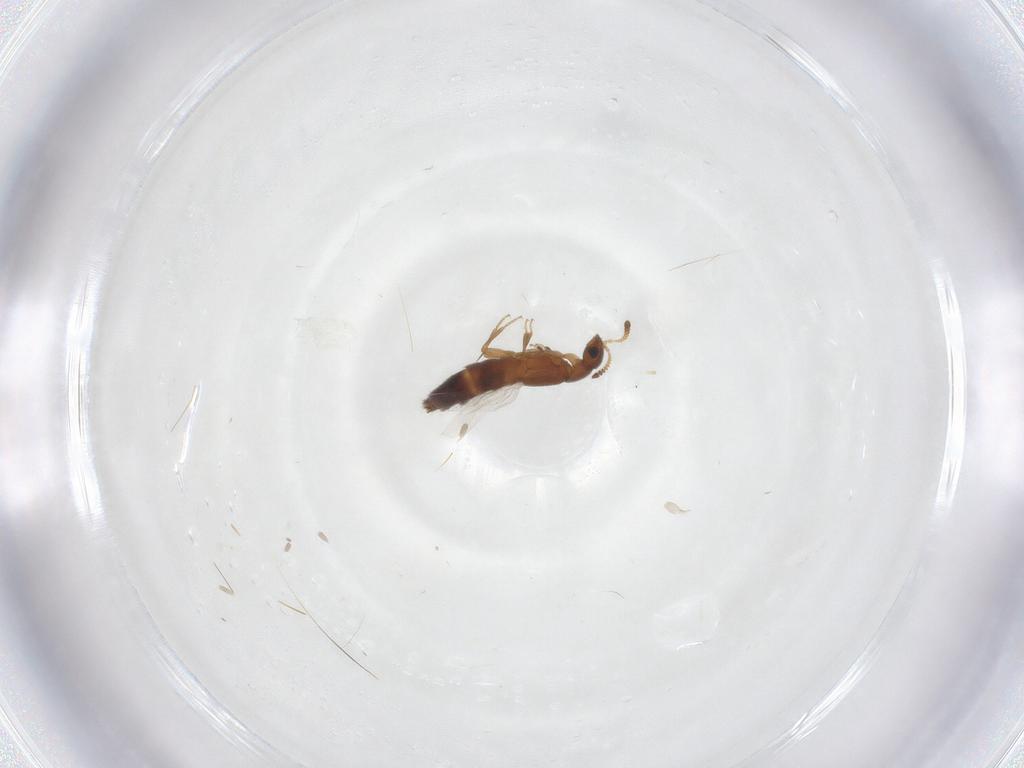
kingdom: Animalia
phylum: Arthropoda
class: Insecta
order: Coleoptera
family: Staphylinidae
